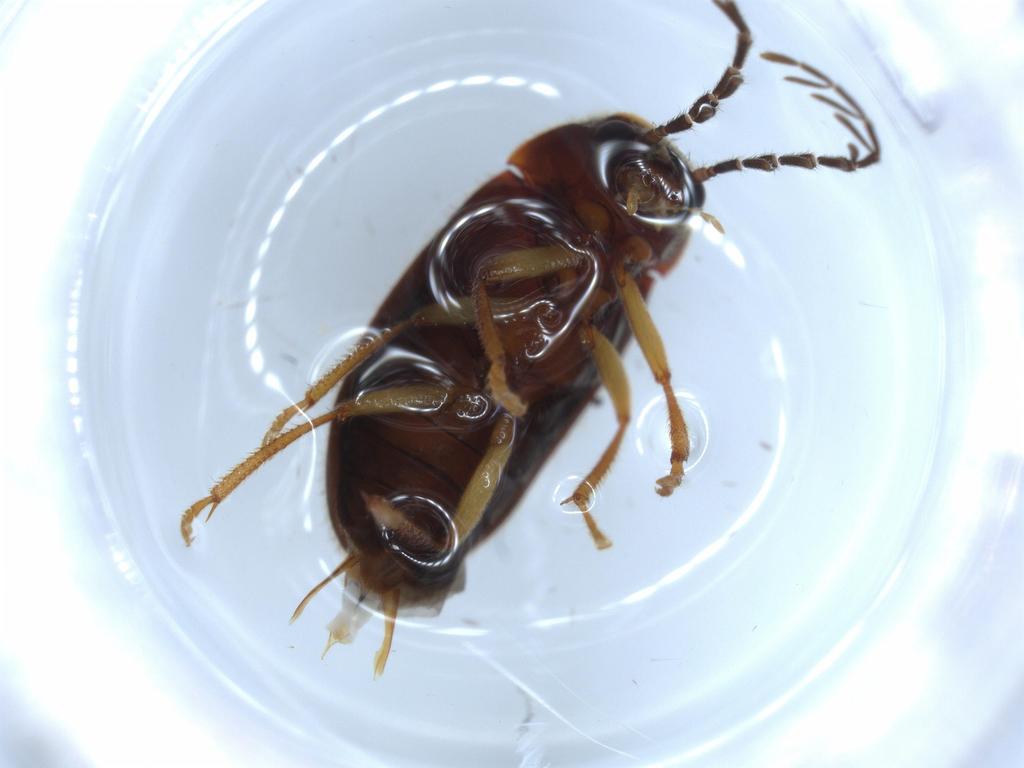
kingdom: Animalia
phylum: Arthropoda
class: Insecta
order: Coleoptera
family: Ptilodactylidae
